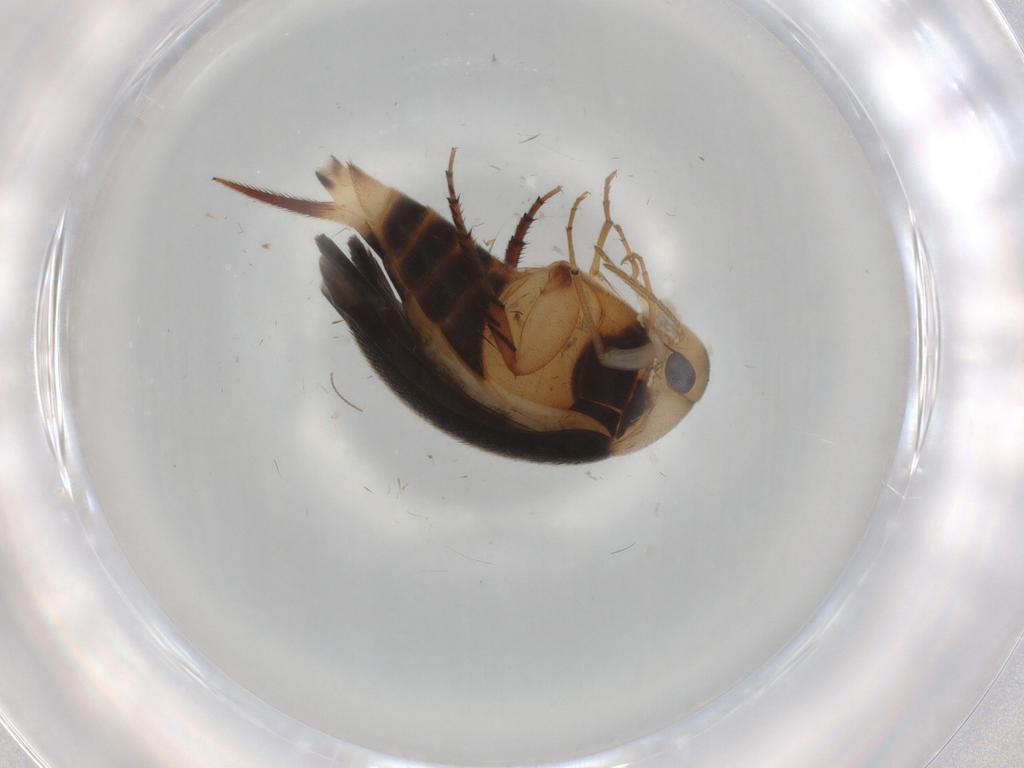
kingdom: Animalia
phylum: Arthropoda
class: Insecta
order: Coleoptera
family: Mordellidae
